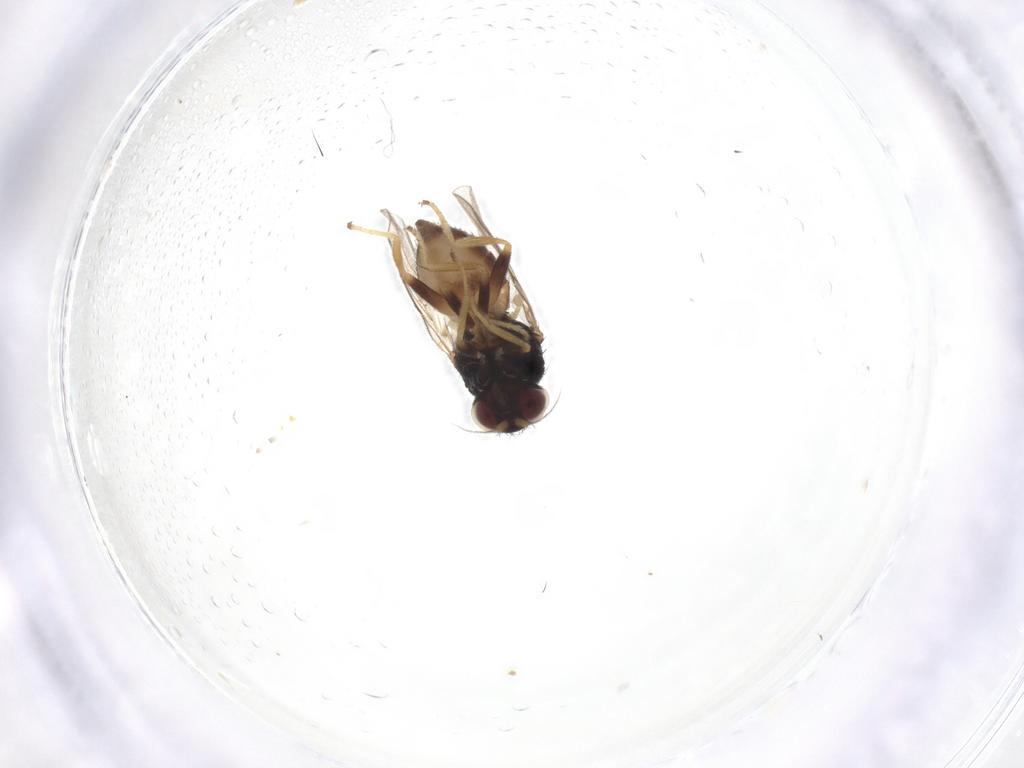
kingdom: Animalia
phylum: Arthropoda
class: Insecta
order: Diptera
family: Chloropidae
